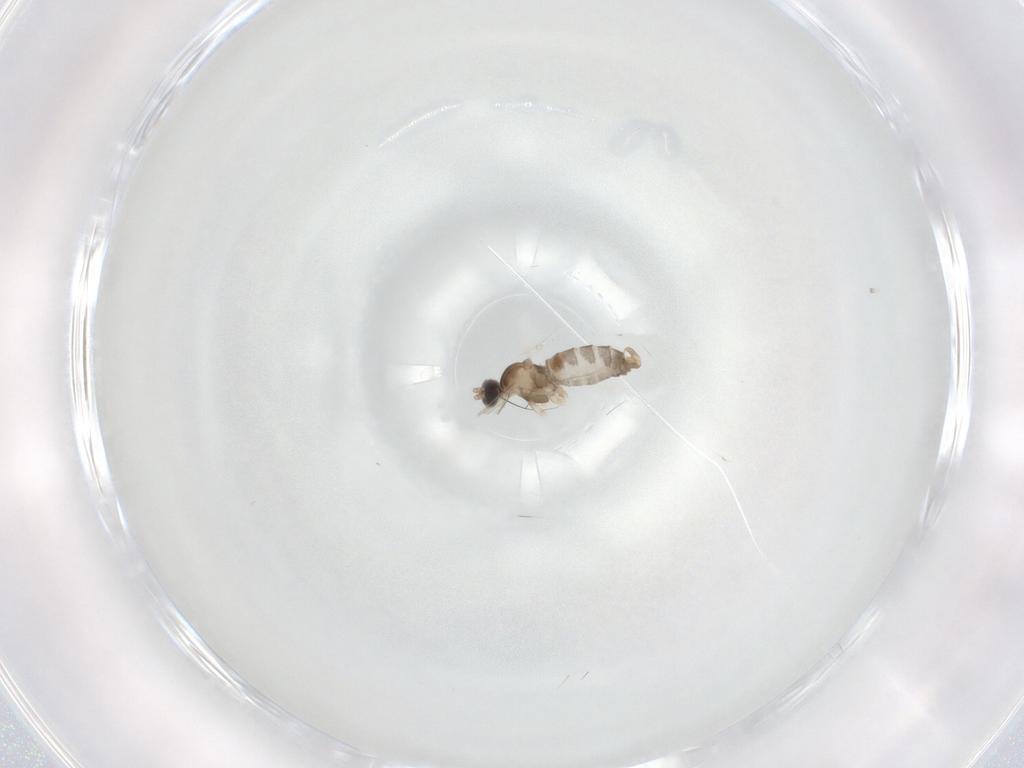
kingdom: Animalia
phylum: Arthropoda
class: Insecta
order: Diptera
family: Cecidomyiidae
